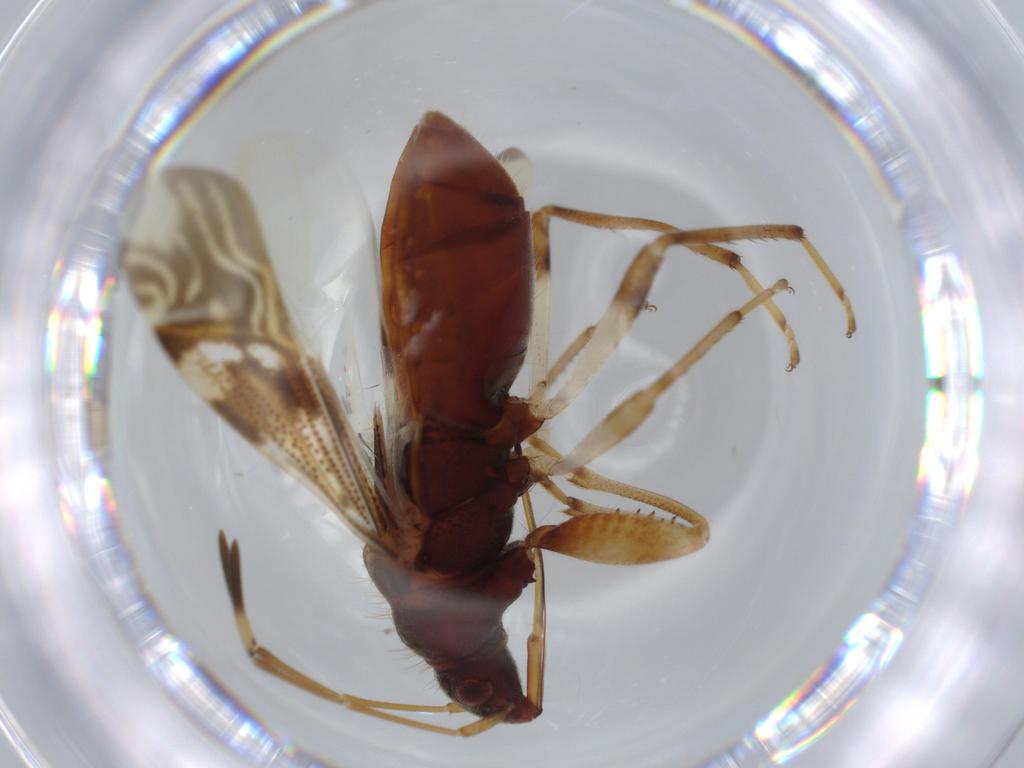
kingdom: Animalia
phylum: Arthropoda
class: Insecta
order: Hemiptera
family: Rhyparochromidae
